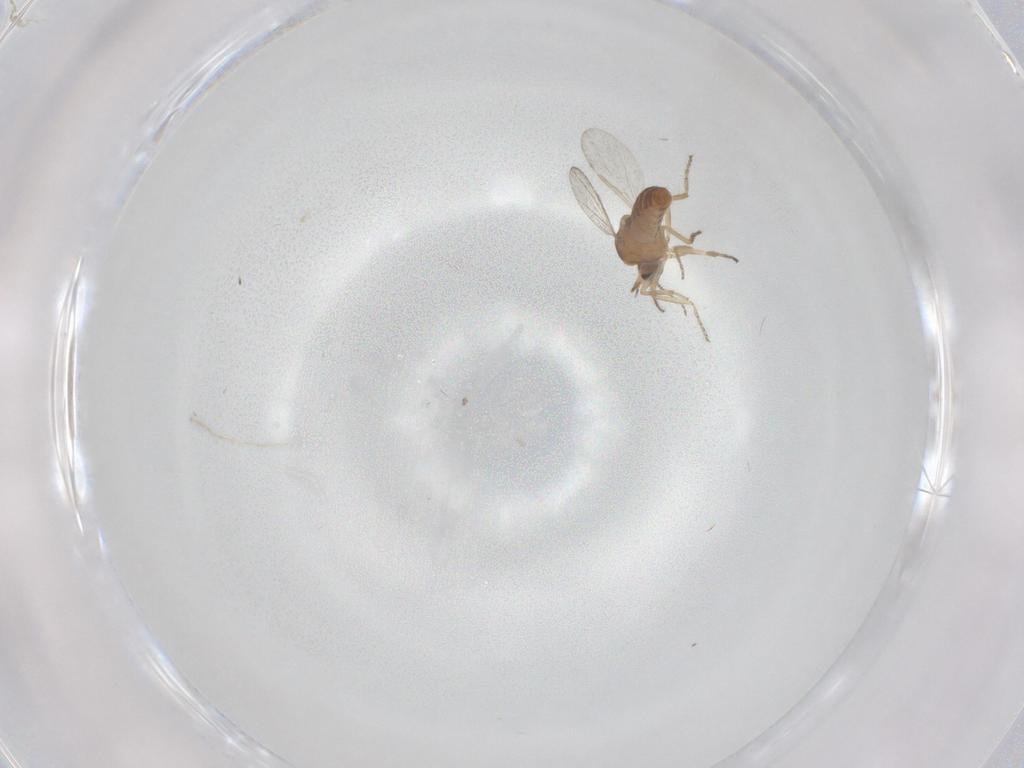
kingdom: Animalia
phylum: Arthropoda
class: Insecta
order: Diptera
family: Ceratopogonidae
